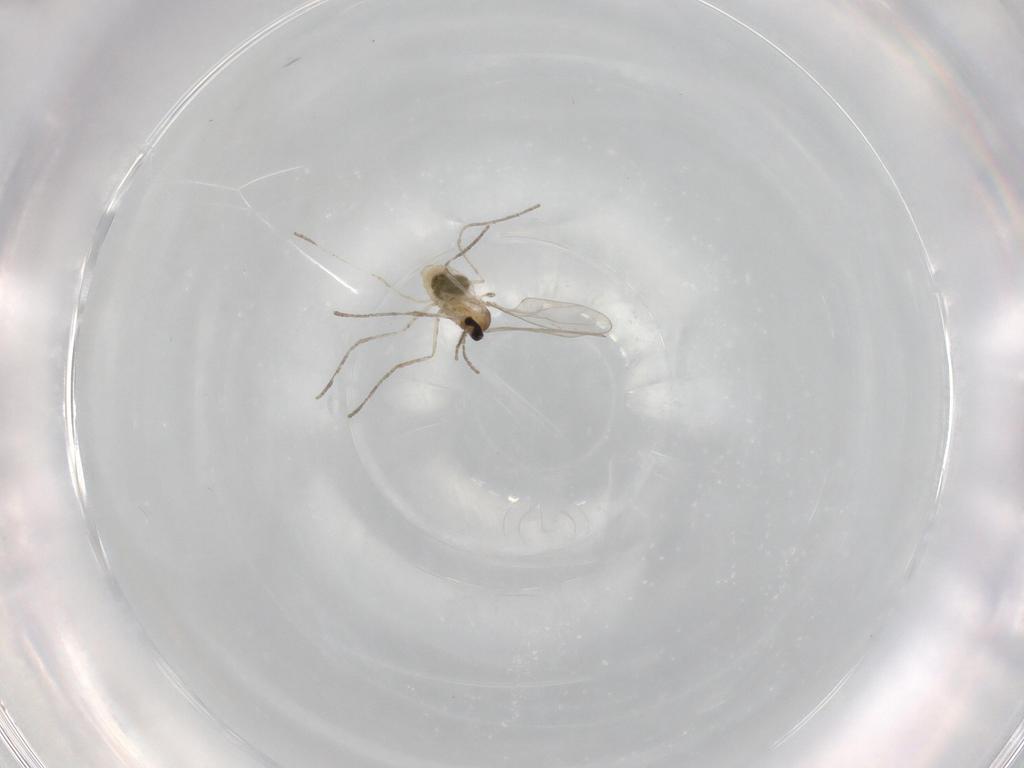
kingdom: Animalia
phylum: Arthropoda
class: Insecta
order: Diptera
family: Cecidomyiidae
